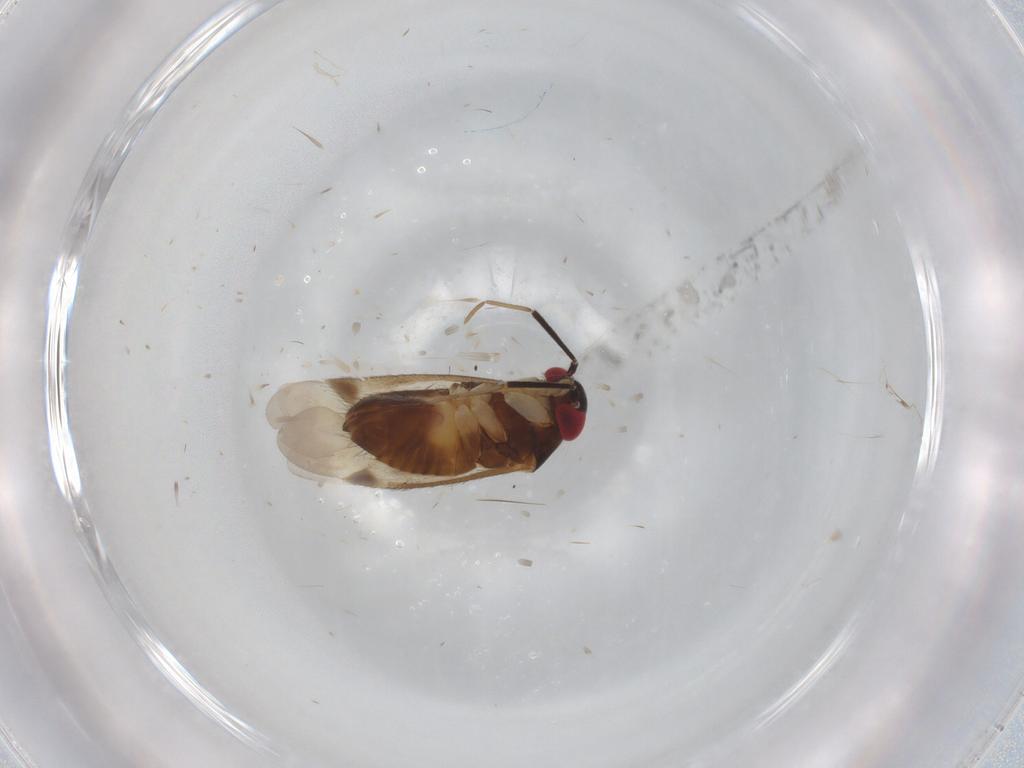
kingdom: Animalia
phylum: Arthropoda
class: Insecta
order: Hemiptera
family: Miridae
